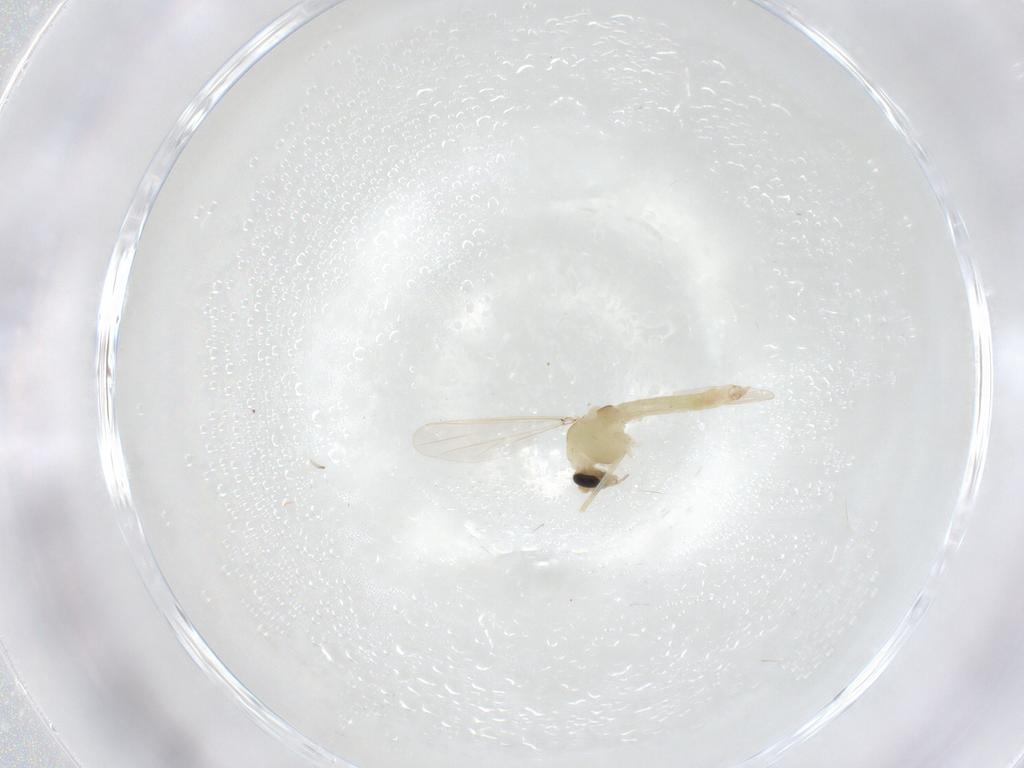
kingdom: Animalia
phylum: Arthropoda
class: Insecta
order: Diptera
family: Chironomidae
